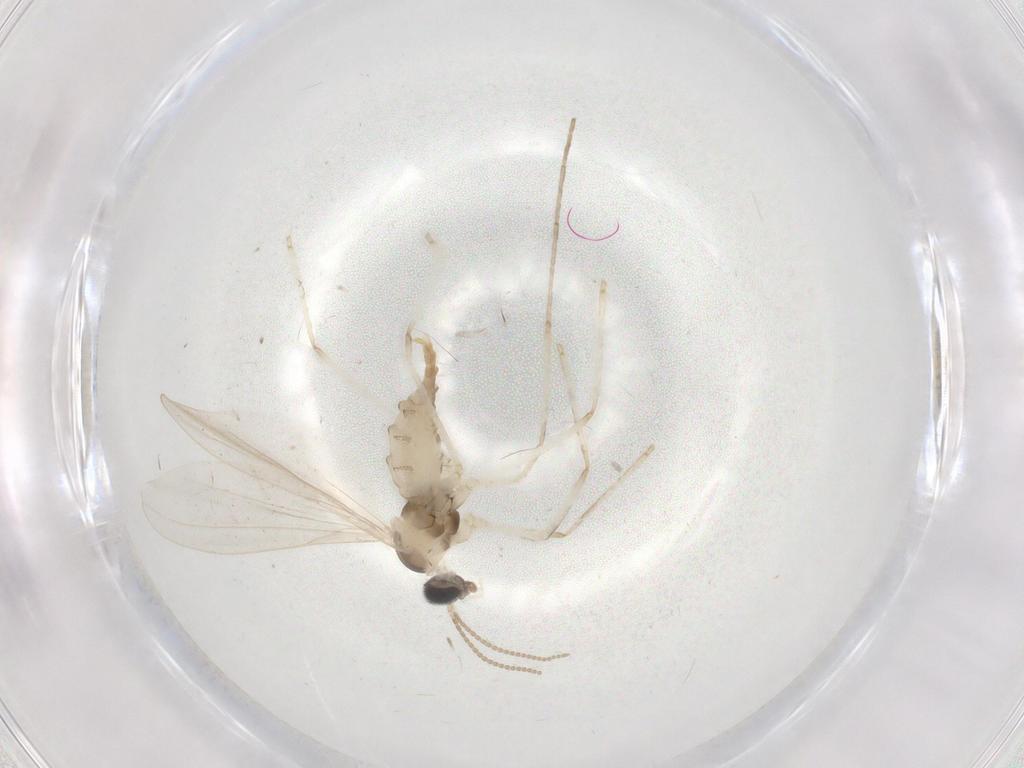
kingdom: Animalia
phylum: Arthropoda
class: Insecta
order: Diptera
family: Cecidomyiidae
